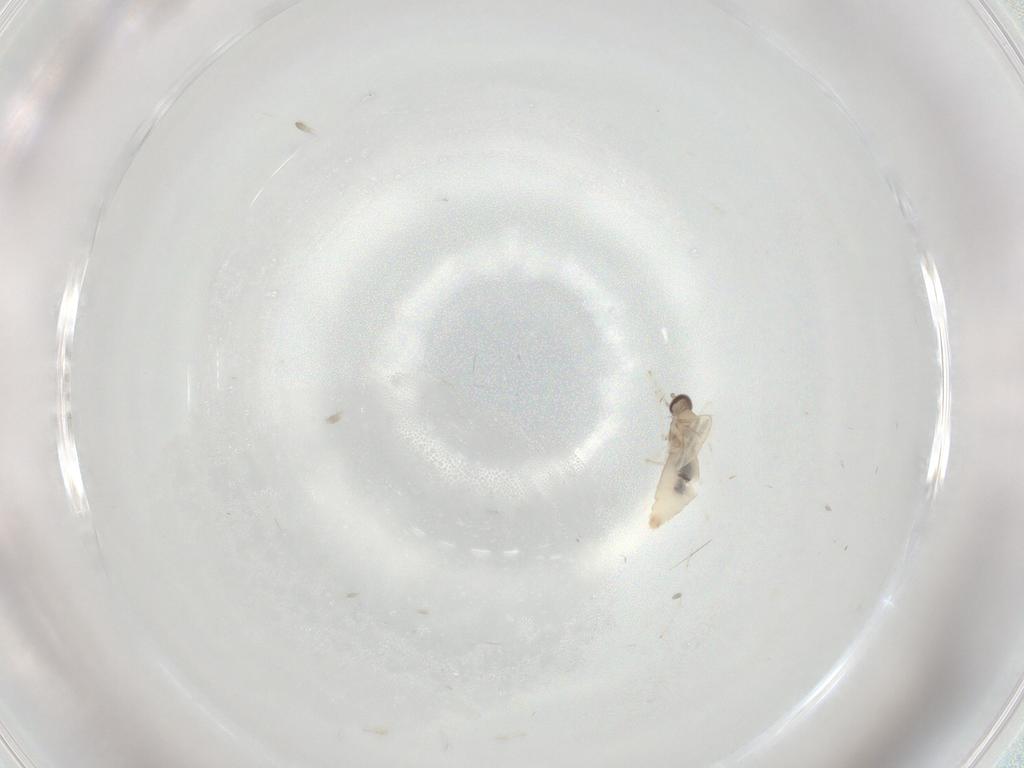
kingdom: Animalia
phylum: Arthropoda
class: Insecta
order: Diptera
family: Cecidomyiidae
